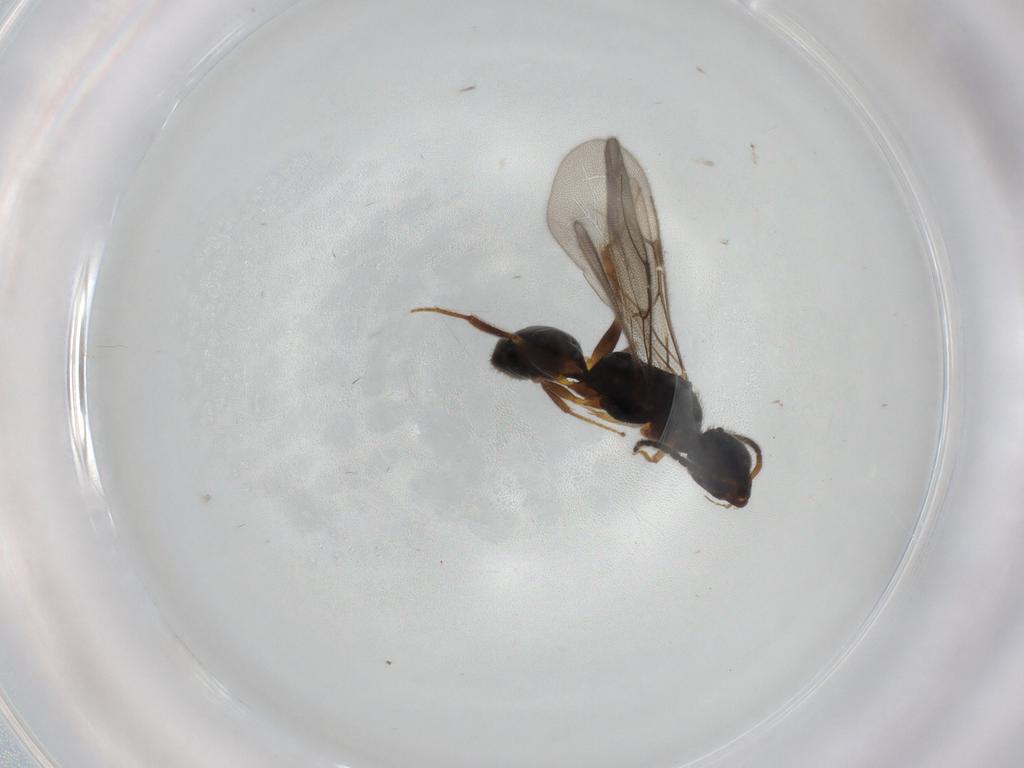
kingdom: Animalia
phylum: Arthropoda
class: Insecta
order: Hymenoptera
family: Bethylidae
